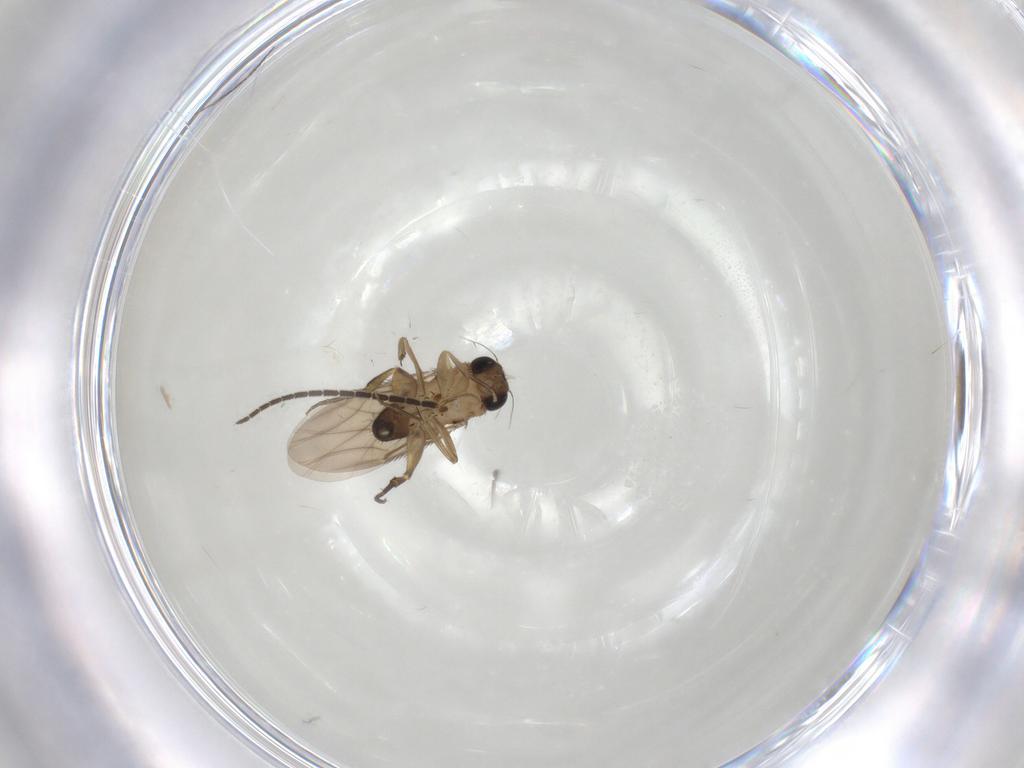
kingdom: Animalia
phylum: Arthropoda
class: Insecta
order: Diptera
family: Phoridae
